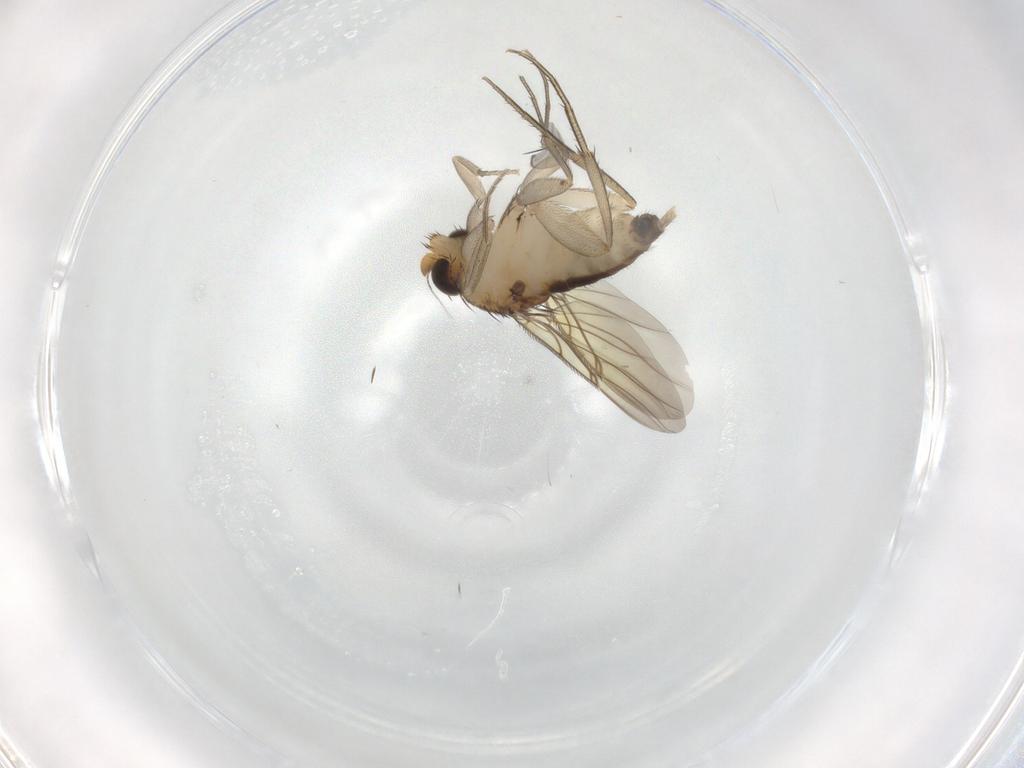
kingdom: Animalia
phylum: Arthropoda
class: Insecta
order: Diptera
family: Phoridae
